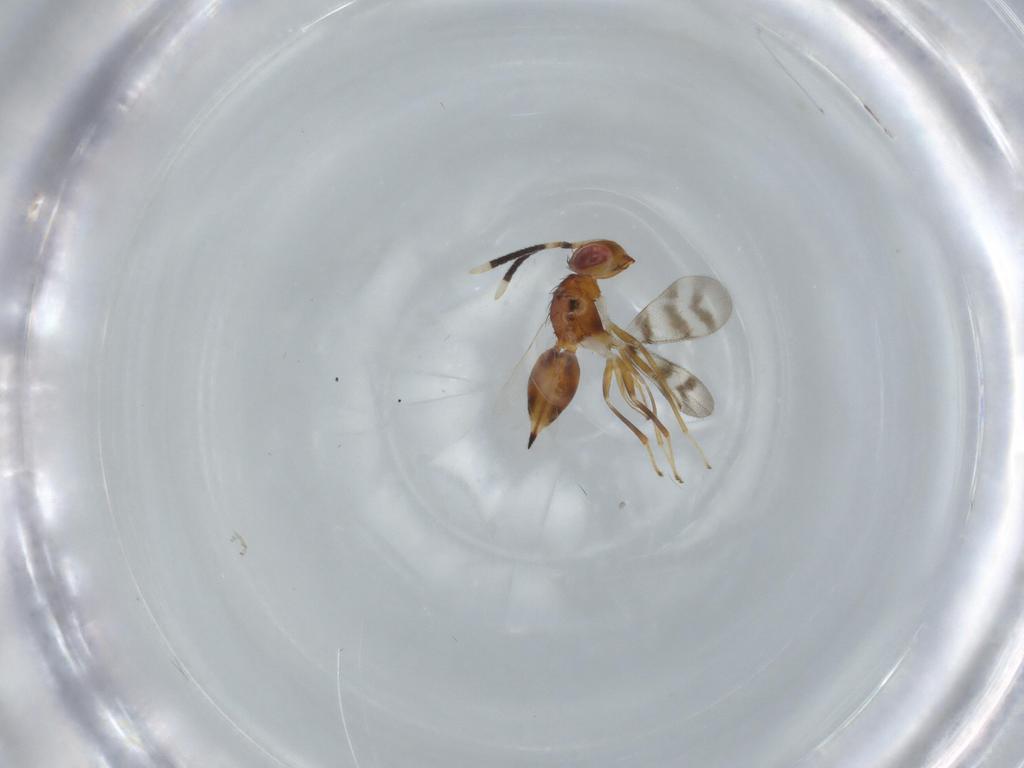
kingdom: Animalia
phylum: Arthropoda
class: Insecta
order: Hymenoptera
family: Diparidae
